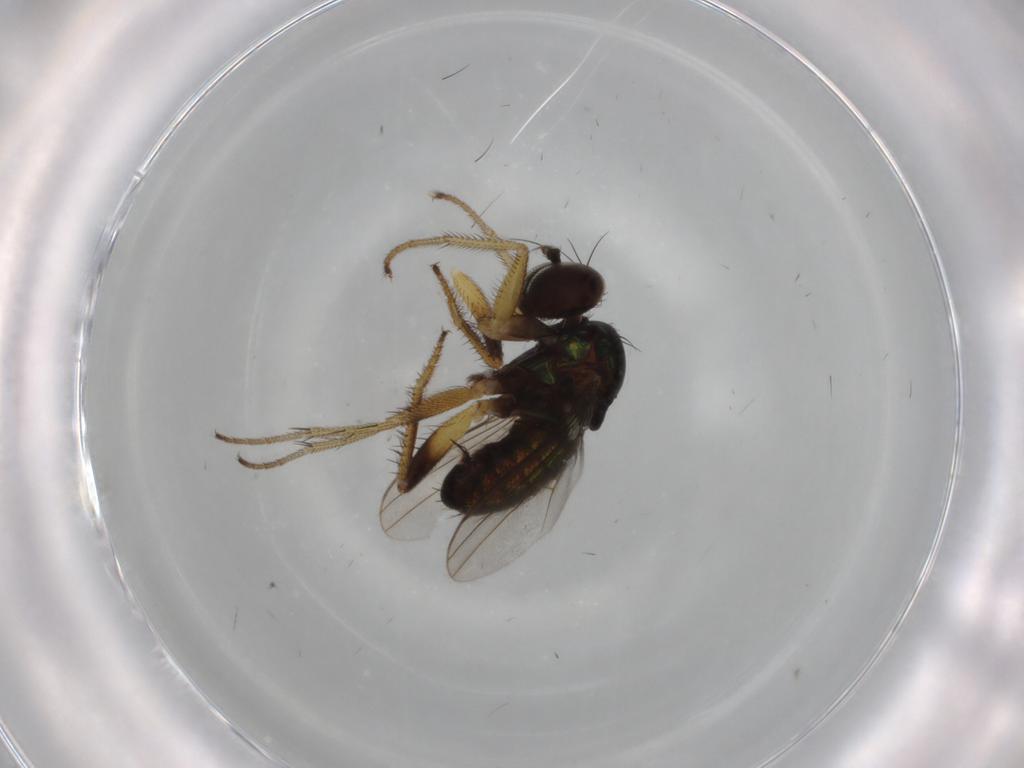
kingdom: Animalia
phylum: Arthropoda
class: Insecta
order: Diptera
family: Dolichopodidae
